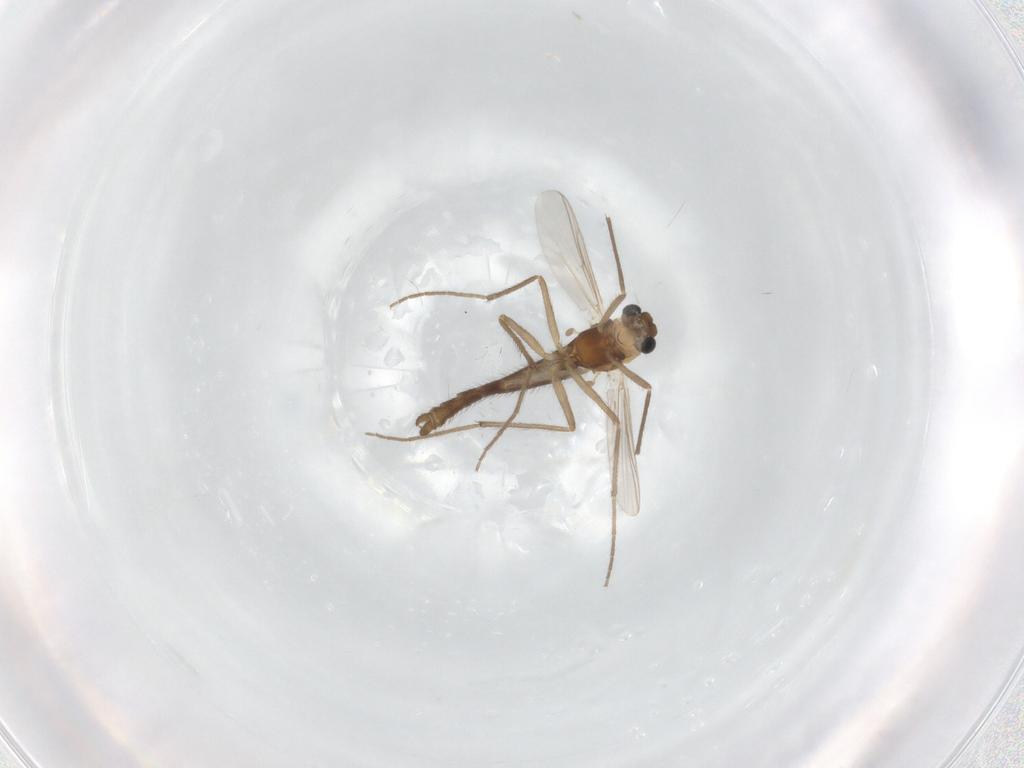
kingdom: Animalia
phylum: Arthropoda
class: Insecta
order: Diptera
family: Chironomidae
